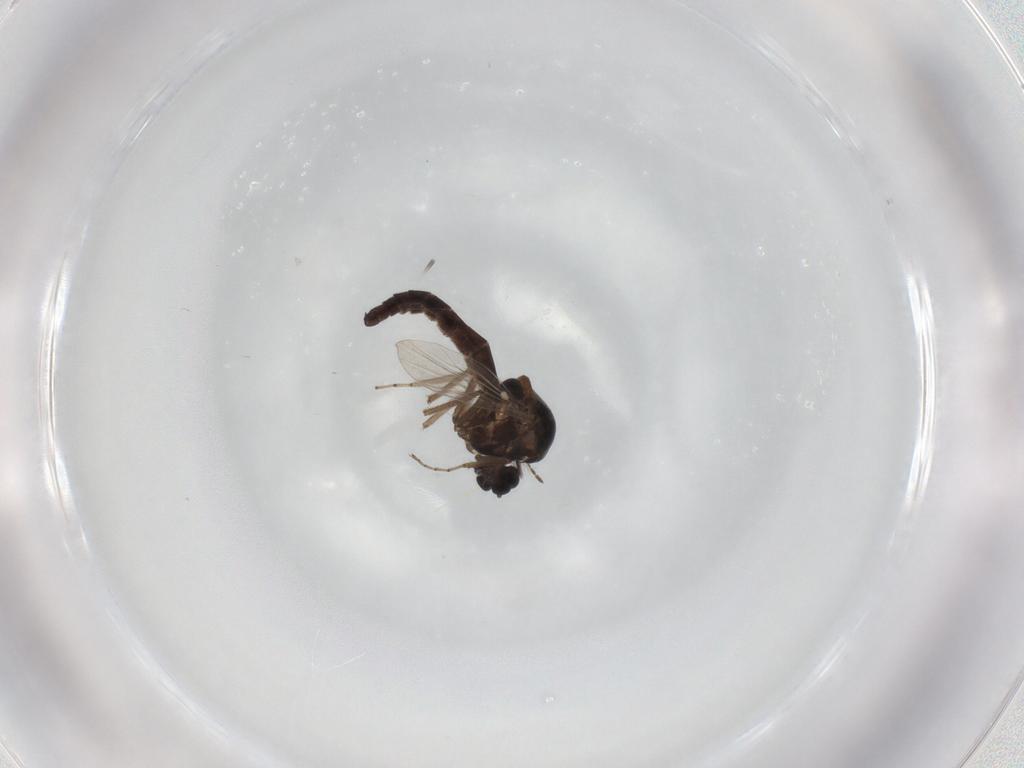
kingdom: Animalia
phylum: Arthropoda
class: Insecta
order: Diptera
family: Ceratopogonidae
